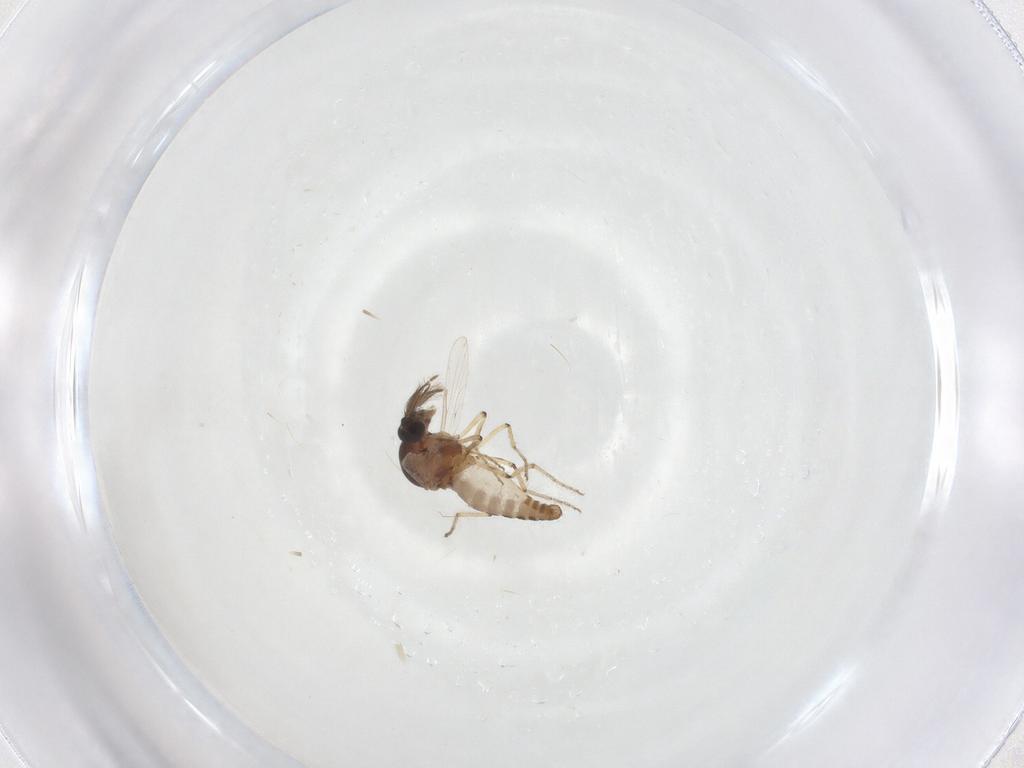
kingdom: Animalia
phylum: Arthropoda
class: Insecta
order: Diptera
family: Ceratopogonidae
